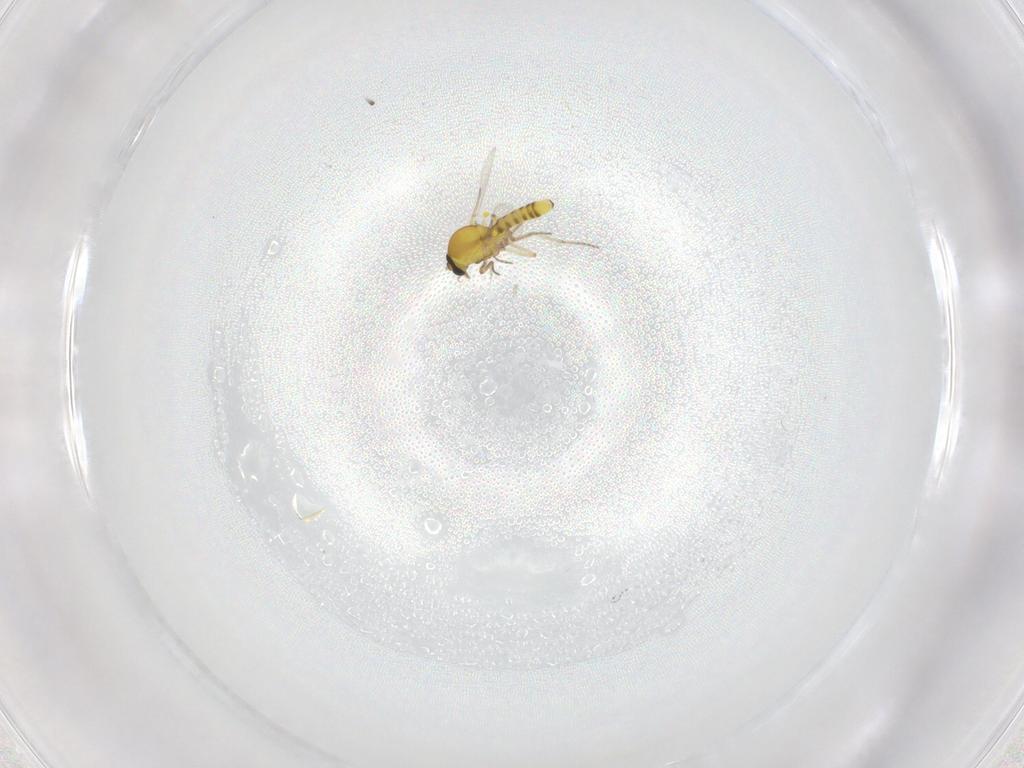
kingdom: Animalia
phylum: Arthropoda
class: Insecta
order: Diptera
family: Ceratopogonidae
